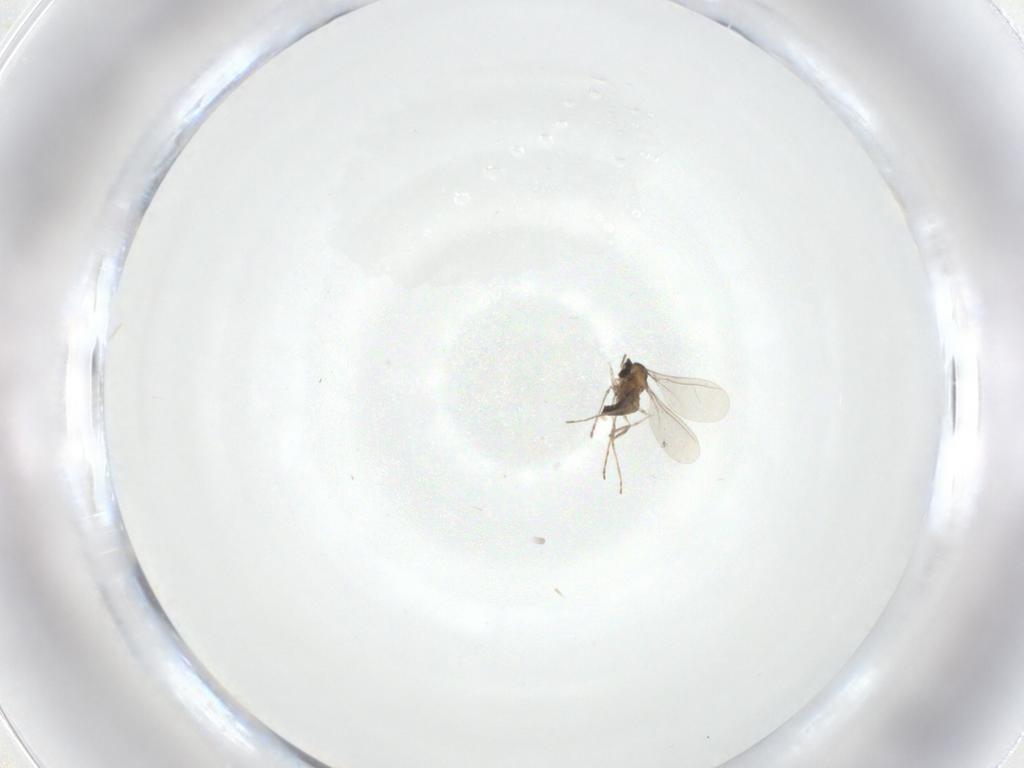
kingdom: Animalia
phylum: Arthropoda
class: Insecta
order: Diptera
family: Cecidomyiidae
